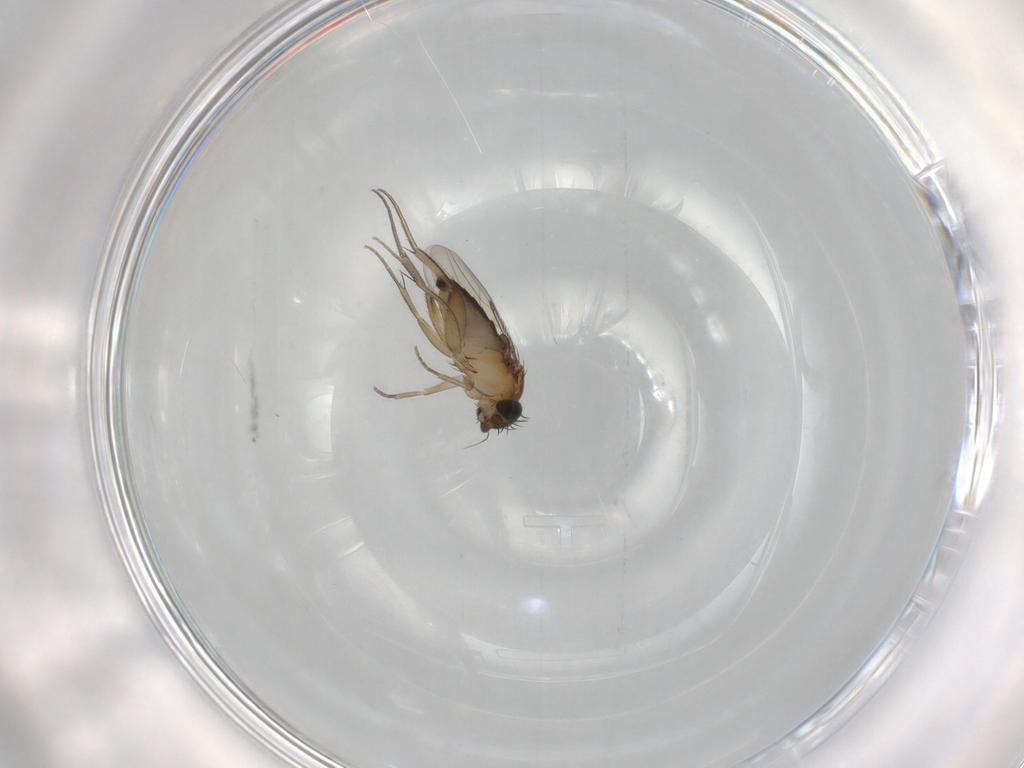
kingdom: Animalia
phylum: Arthropoda
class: Insecta
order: Diptera
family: Phoridae
